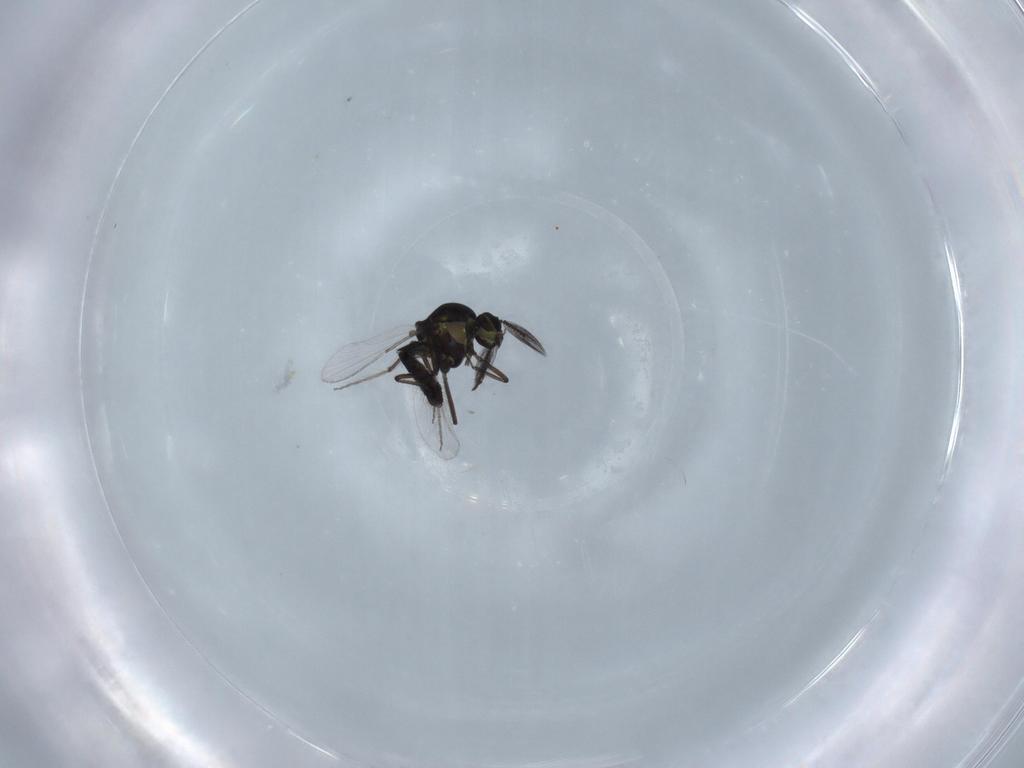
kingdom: Animalia
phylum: Arthropoda
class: Insecta
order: Diptera
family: Ceratopogonidae
